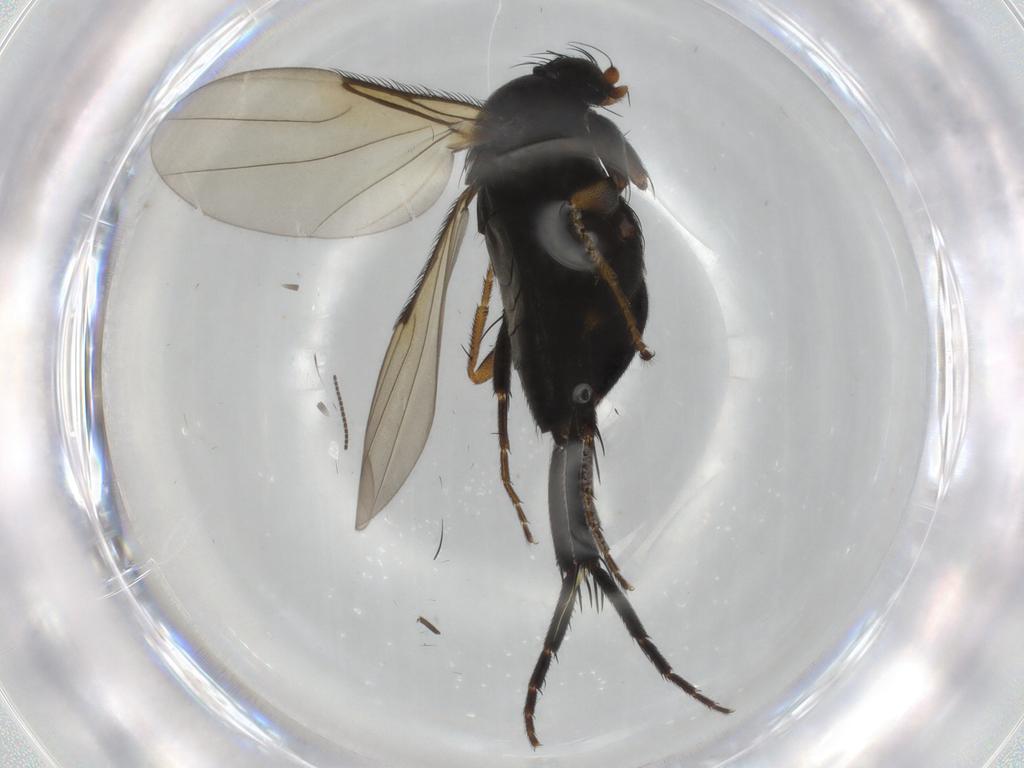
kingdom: Animalia
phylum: Arthropoda
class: Insecta
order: Diptera
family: Sciaridae
